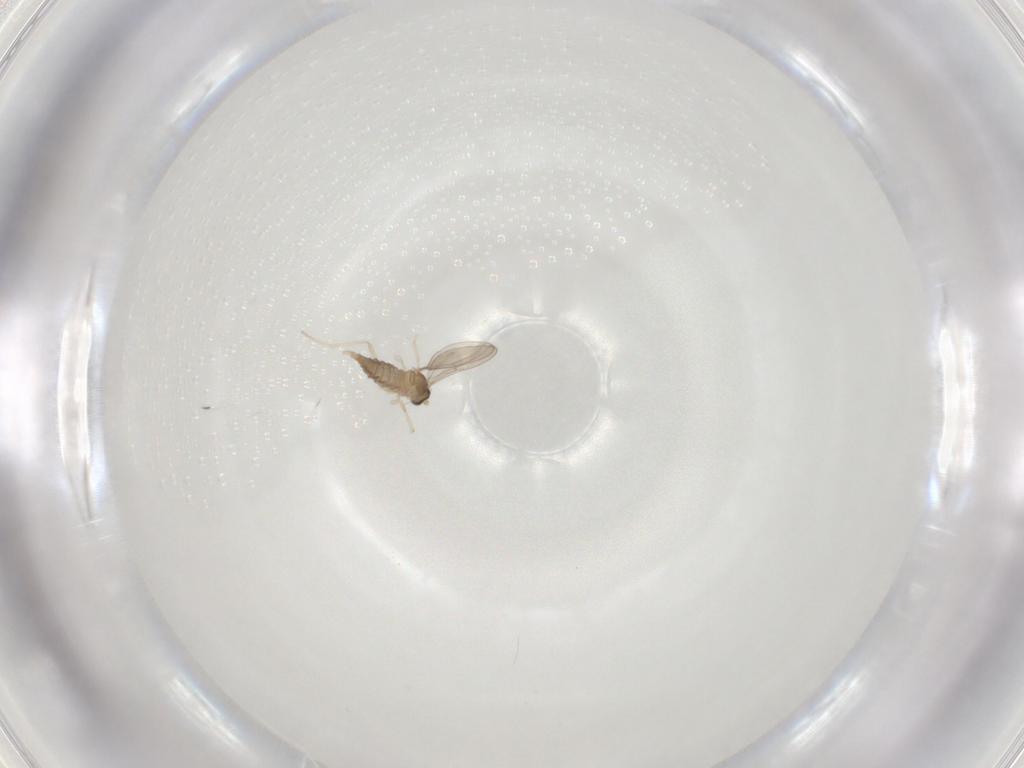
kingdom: Animalia
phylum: Arthropoda
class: Insecta
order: Diptera
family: Cecidomyiidae
